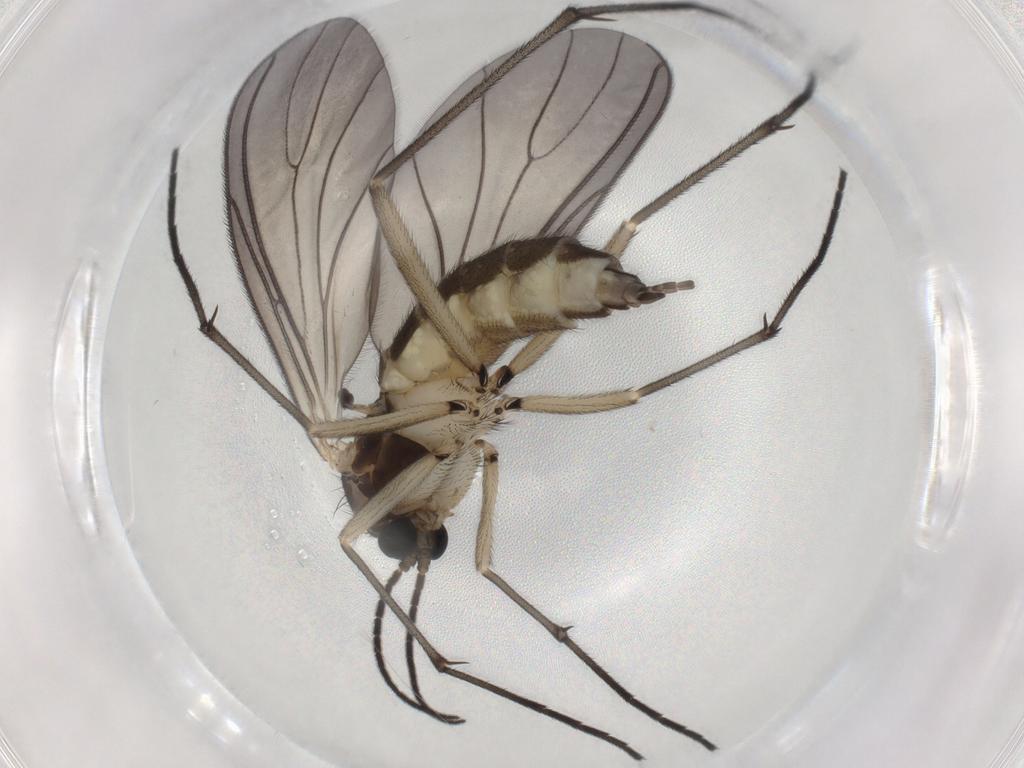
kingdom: Animalia
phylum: Arthropoda
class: Insecta
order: Diptera
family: Sciaridae
